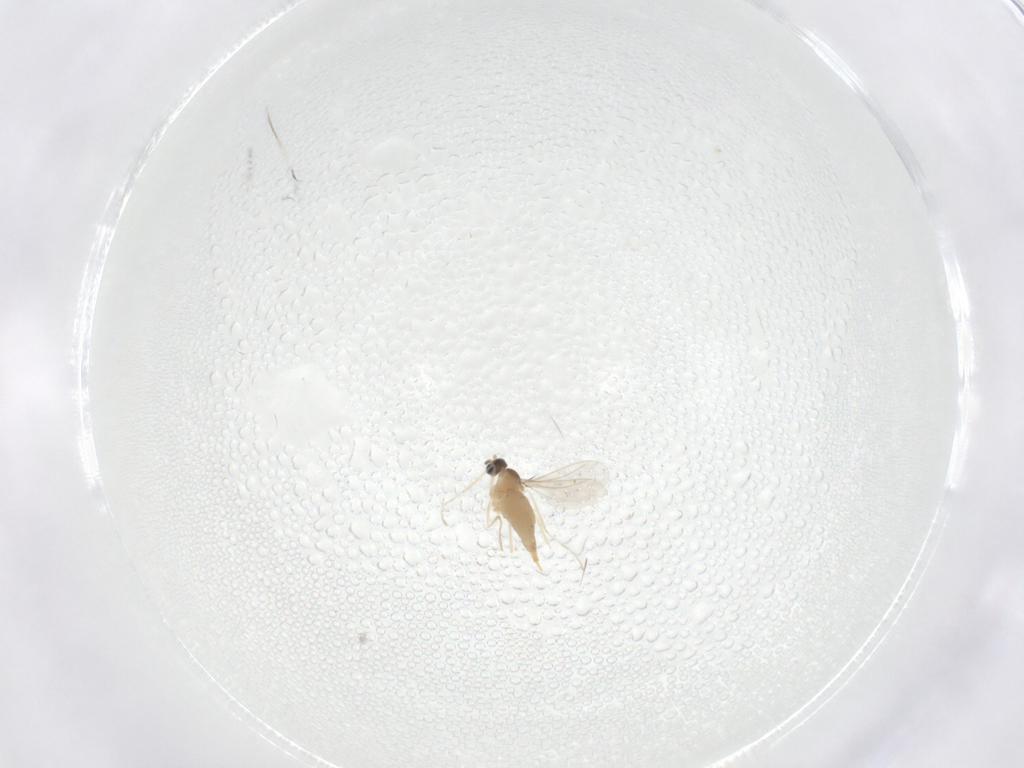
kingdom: Animalia
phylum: Arthropoda
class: Insecta
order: Diptera
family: Cecidomyiidae
